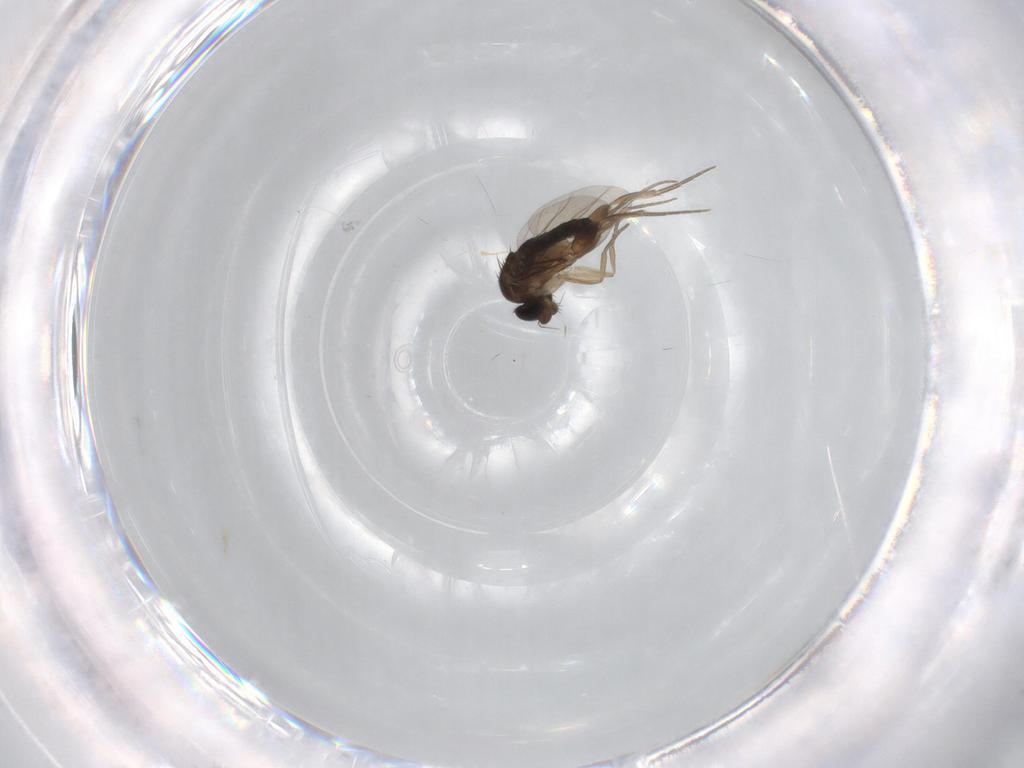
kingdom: Animalia
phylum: Arthropoda
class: Insecta
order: Diptera
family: Phoridae
